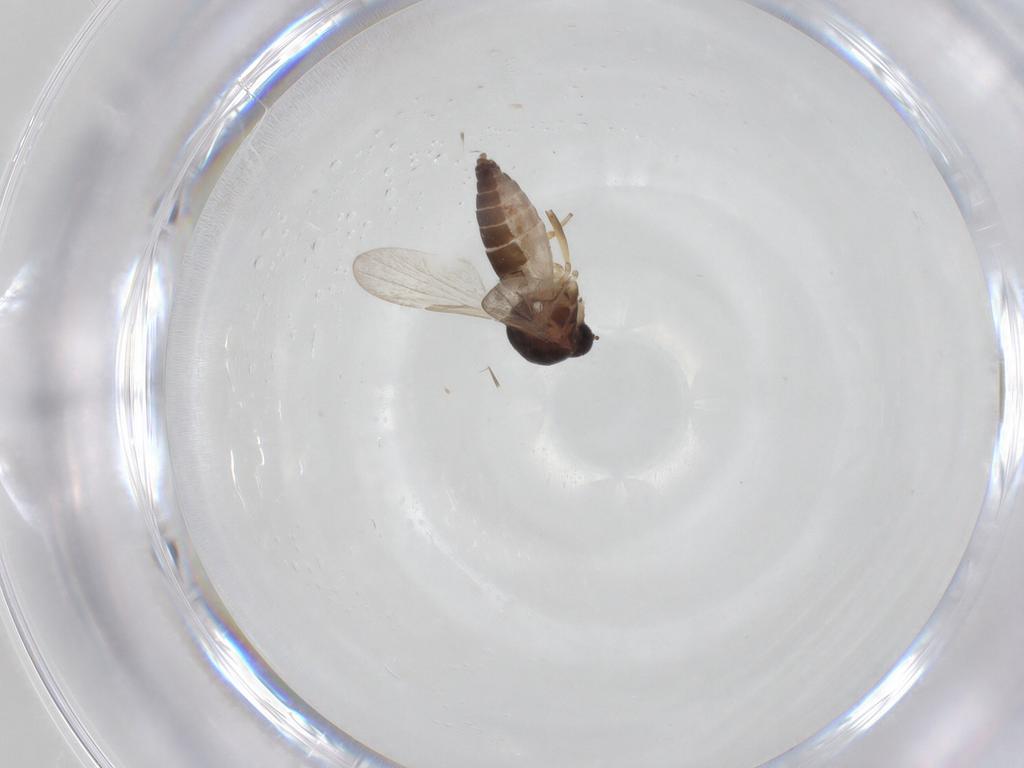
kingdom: Animalia
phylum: Arthropoda
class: Insecta
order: Diptera
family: Ceratopogonidae
